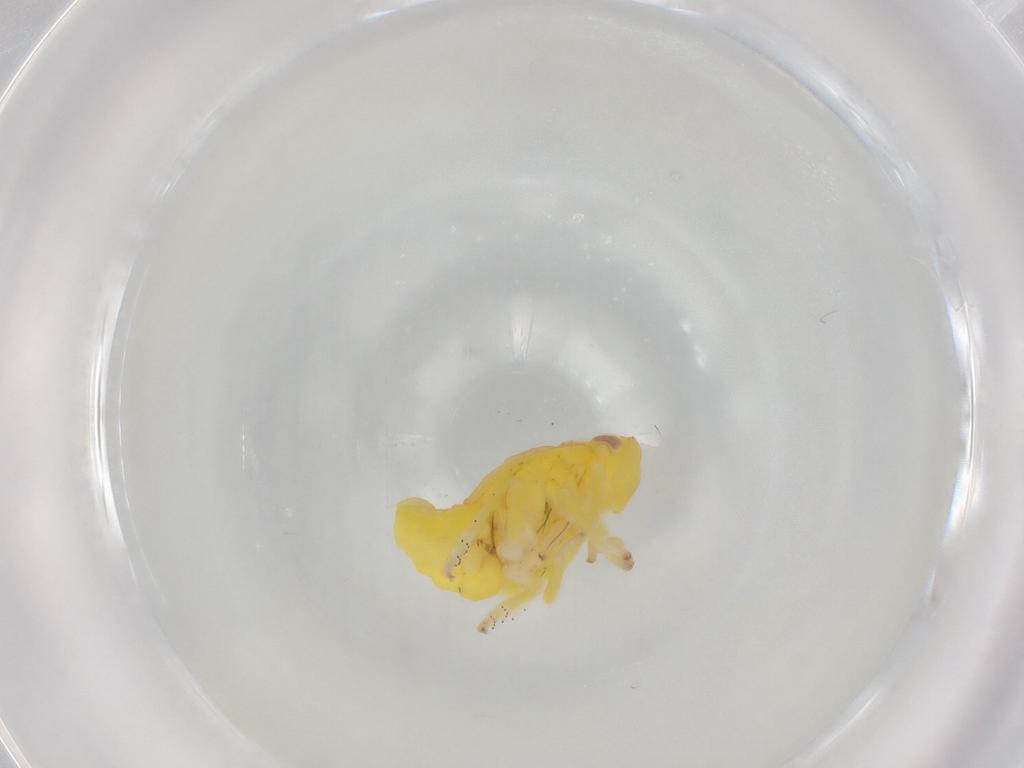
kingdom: Animalia
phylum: Arthropoda
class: Insecta
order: Hemiptera
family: Tropiduchidae
